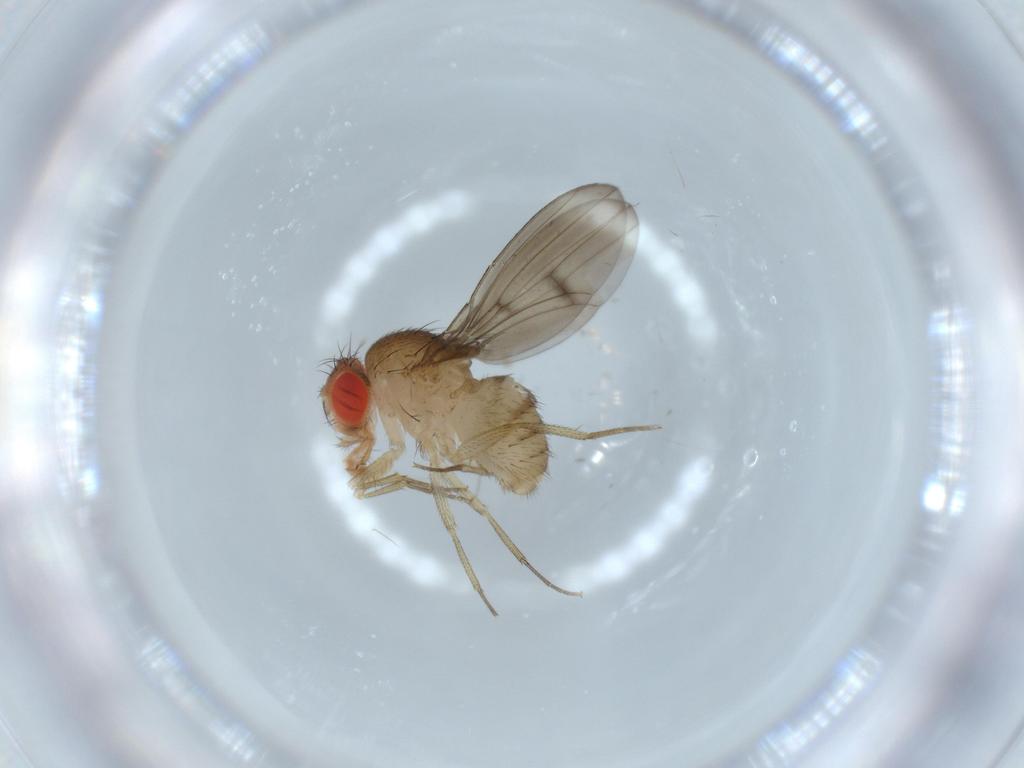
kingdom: Animalia
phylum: Arthropoda
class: Insecta
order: Diptera
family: Drosophilidae
